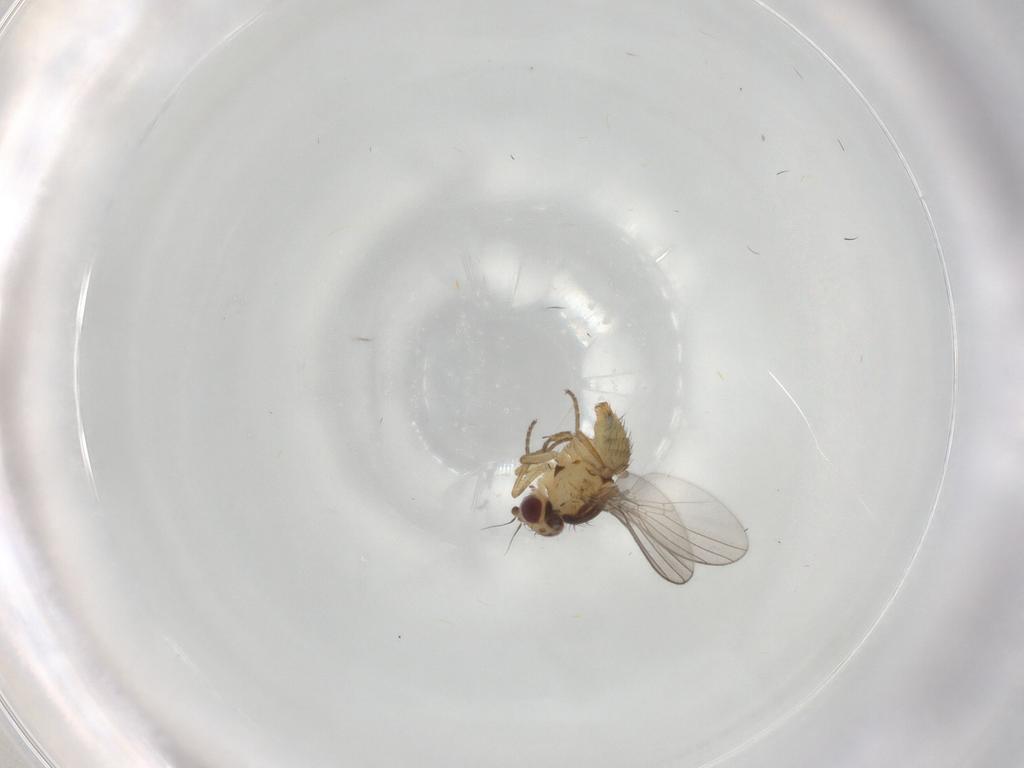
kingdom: Animalia
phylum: Arthropoda
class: Insecta
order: Diptera
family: Agromyzidae
